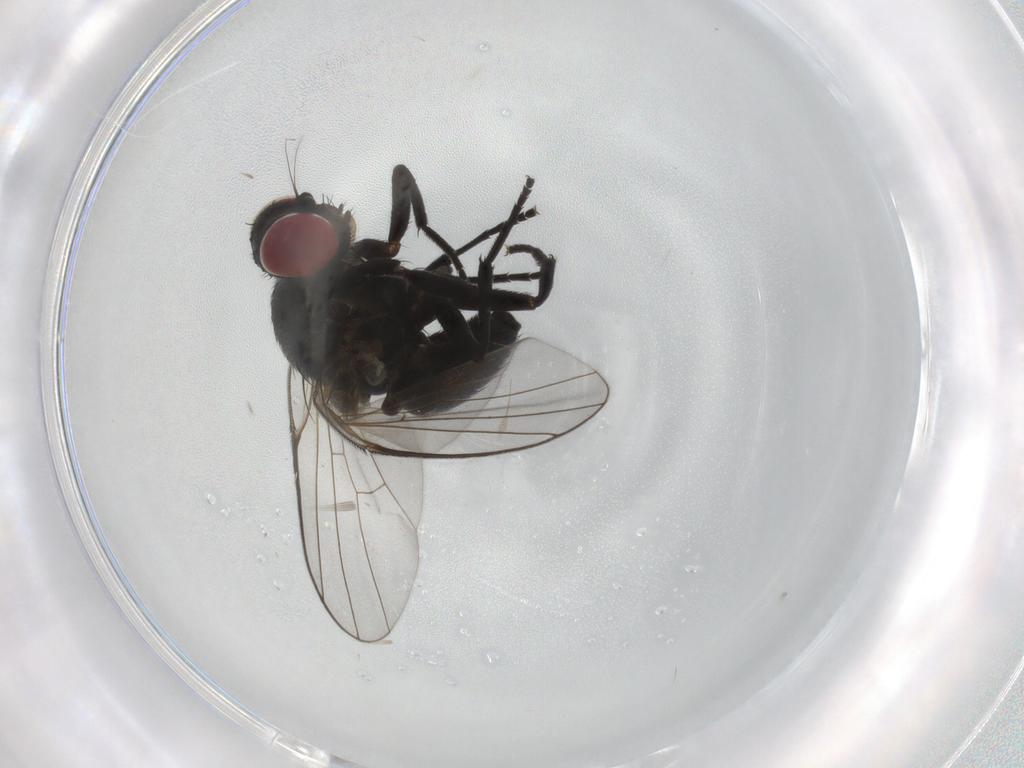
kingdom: Animalia
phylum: Arthropoda
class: Insecta
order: Diptera
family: Agromyzidae
